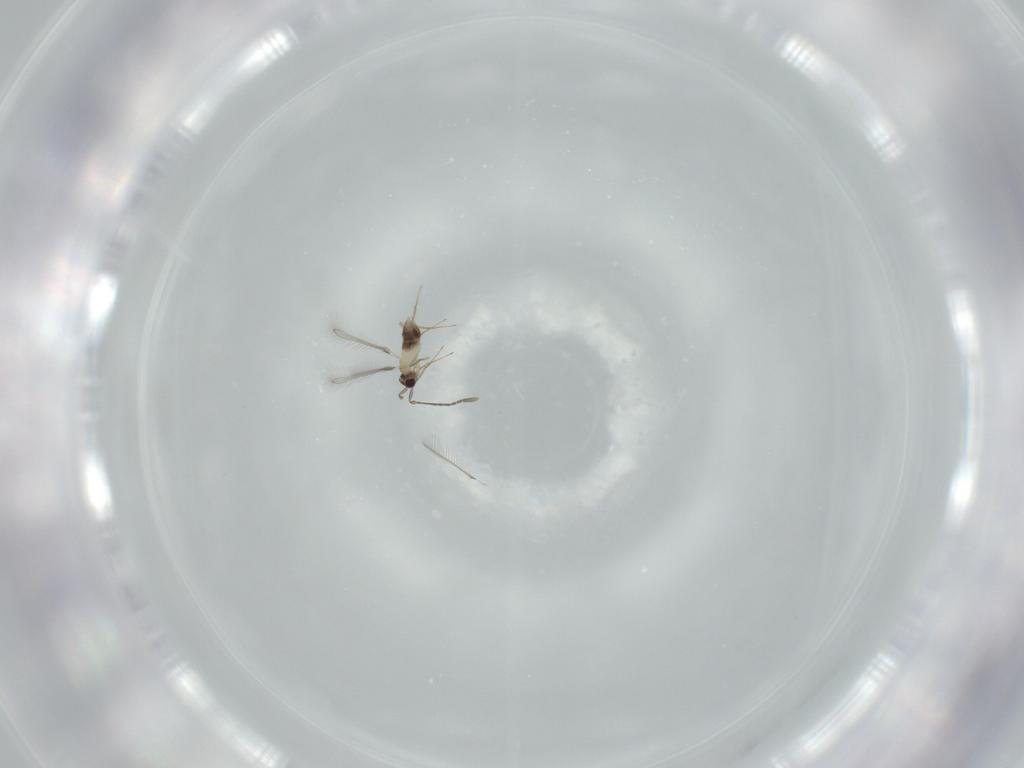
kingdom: Animalia
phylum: Arthropoda
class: Insecta
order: Hymenoptera
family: Mymaridae
